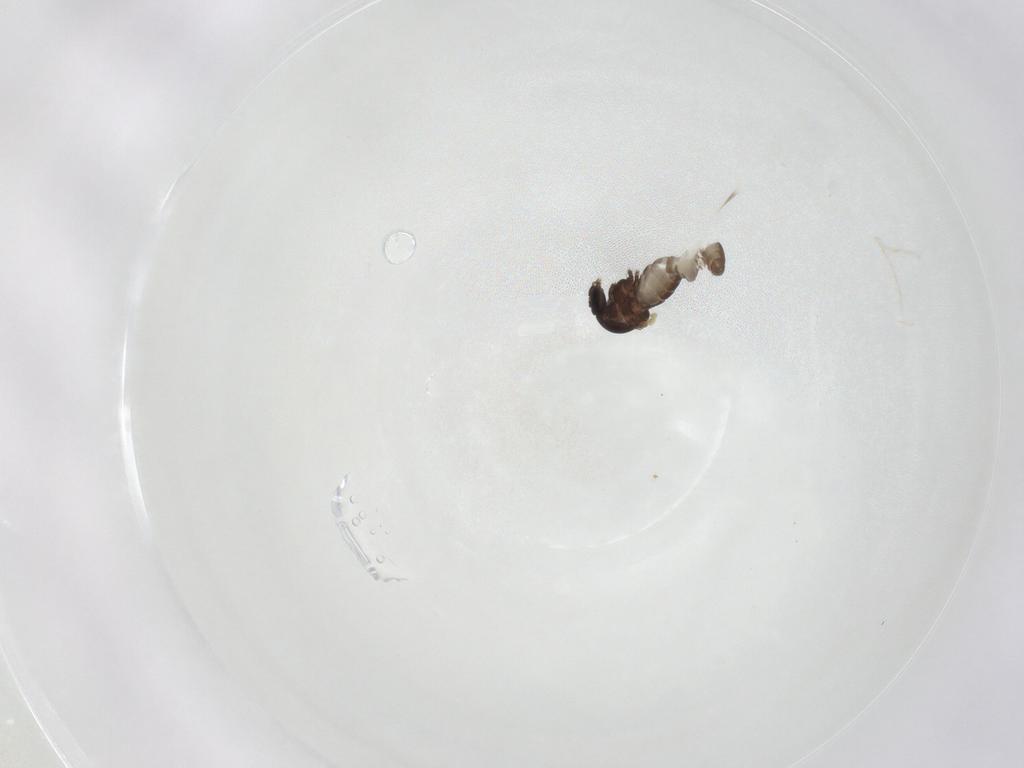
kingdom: Animalia
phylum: Arthropoda
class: Insecta
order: Diptera
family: Ceratopogonidae
